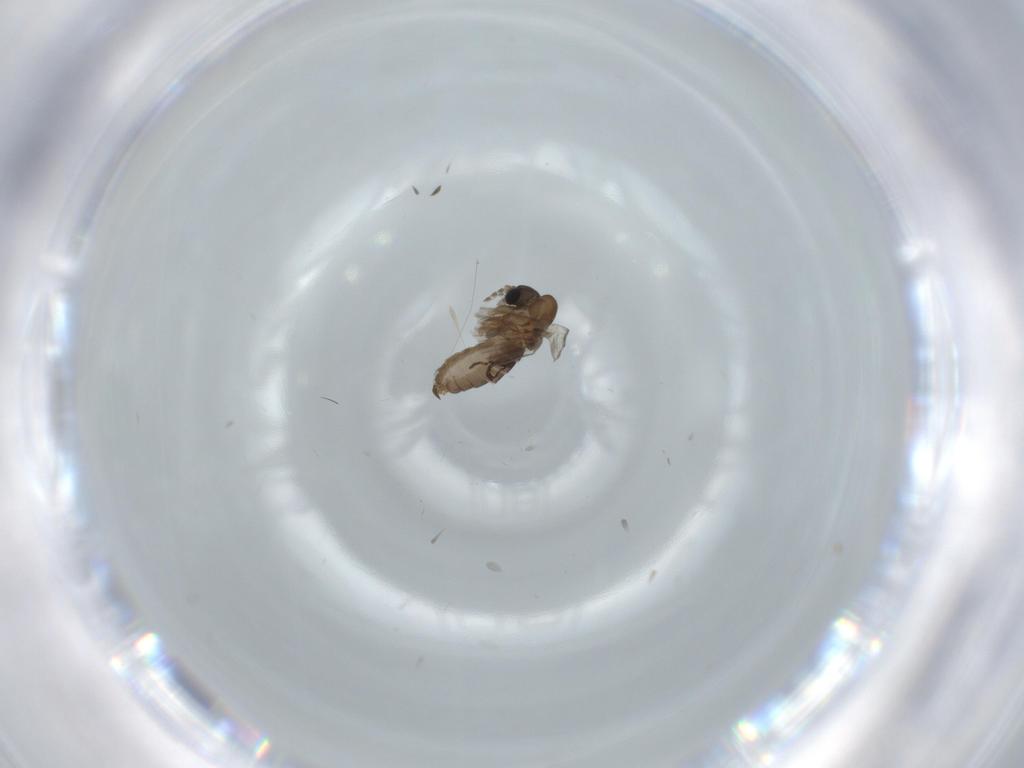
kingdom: Animalia
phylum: Arthropoda
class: Insecta
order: Diptera
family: Psychodidae
